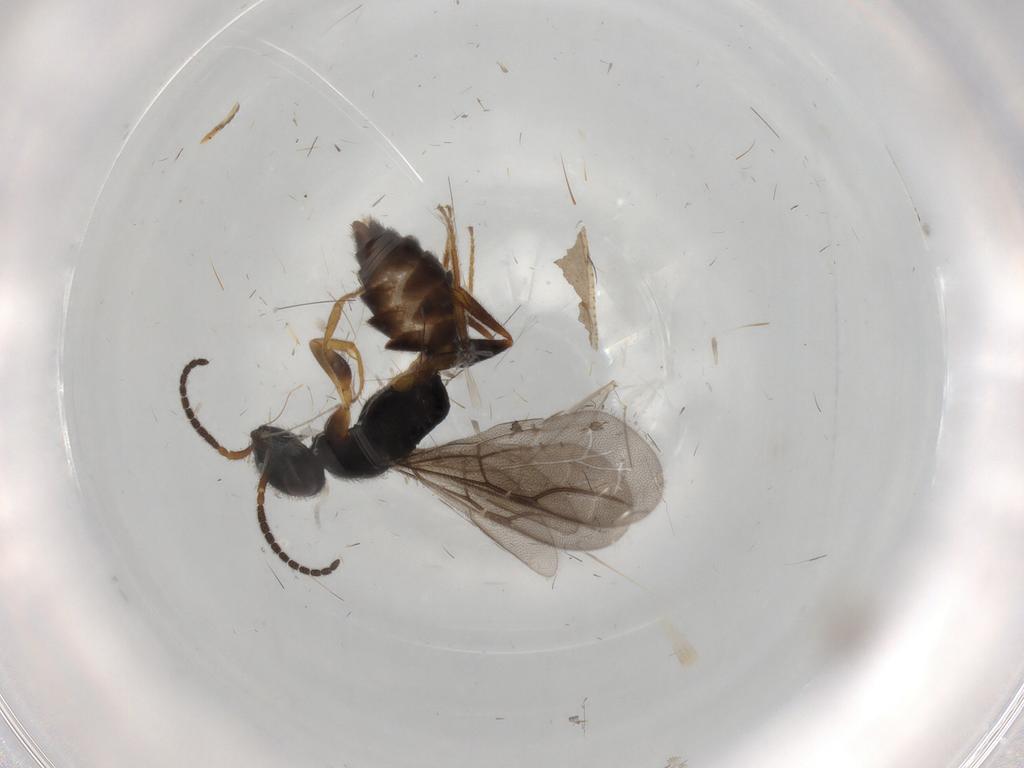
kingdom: Animalia
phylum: Arthropoda
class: Insecta
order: Hymenoptera
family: Bethylidae
